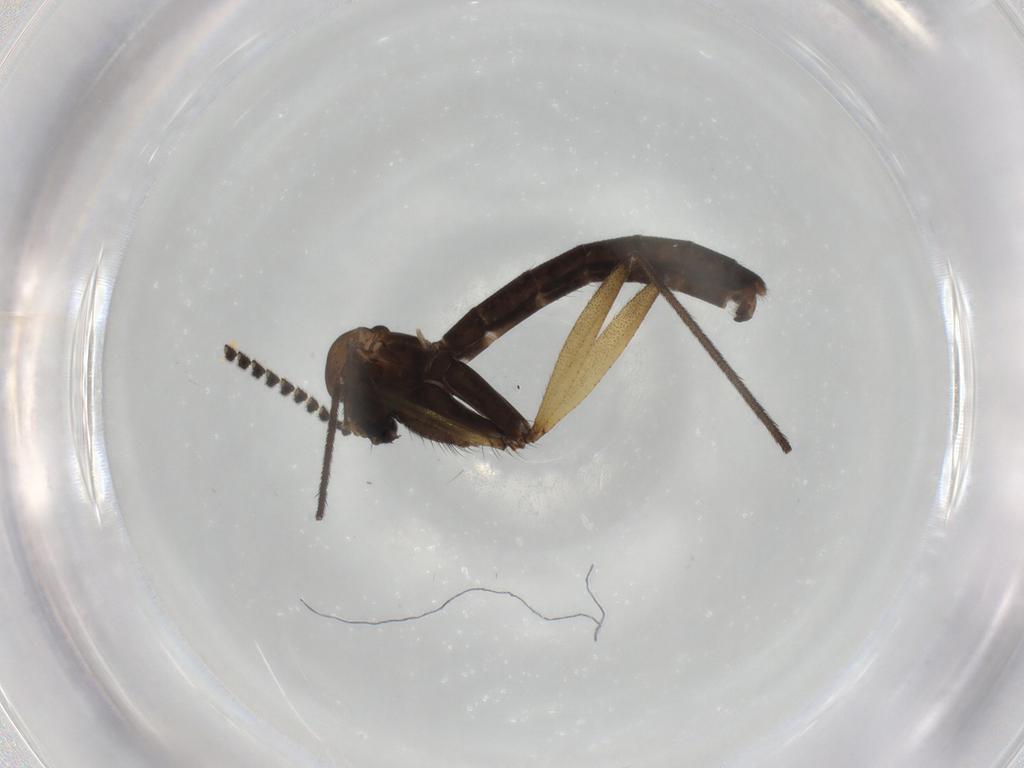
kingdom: Animalia
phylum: Arthropoda
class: Insecta
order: Diptera
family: Phoridae
